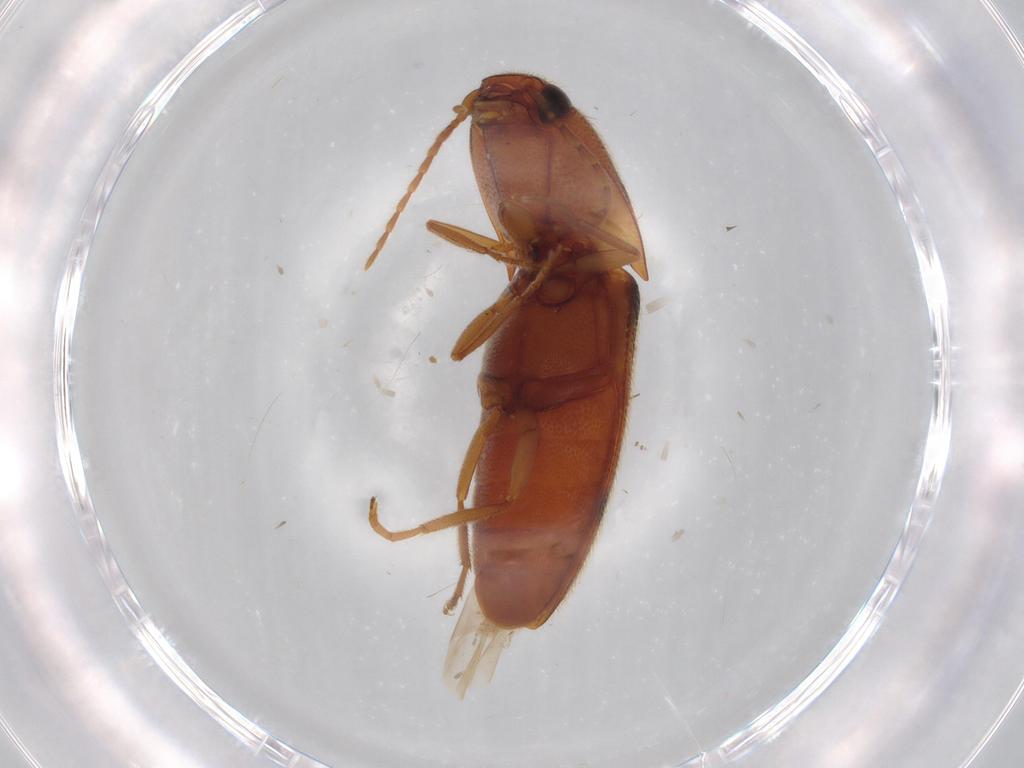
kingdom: Animalia
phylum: Arthropoda
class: Insecta
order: Coleoptera
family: Elateridae
